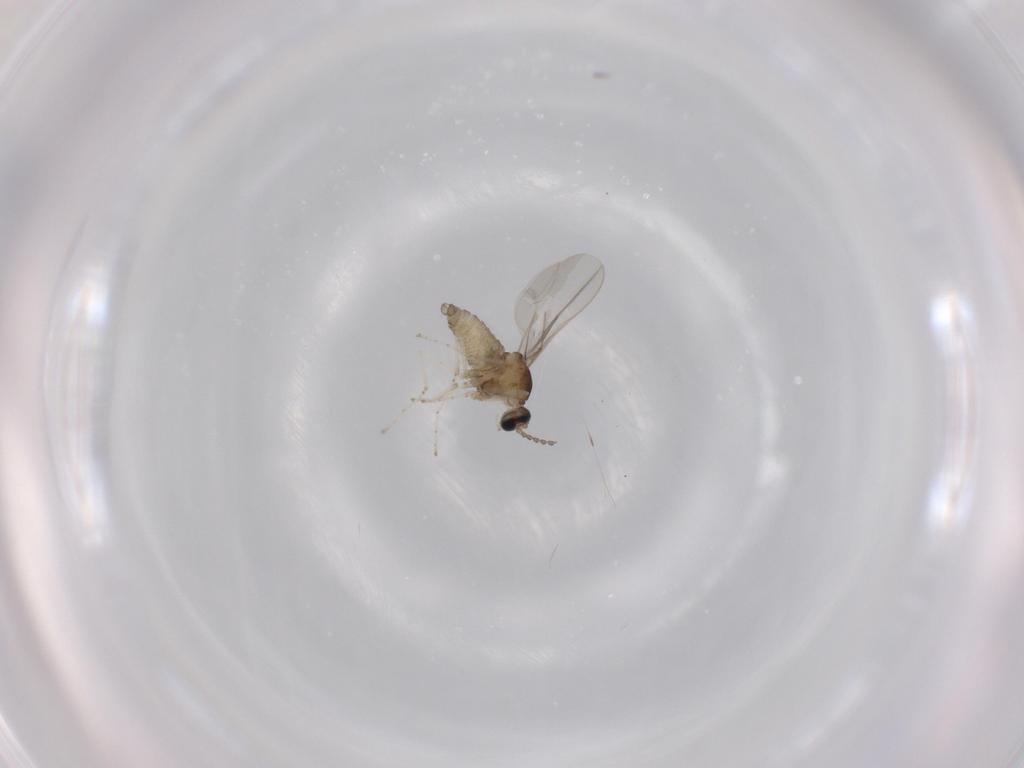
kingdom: Animalia
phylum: Arthropoda
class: Insecta
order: Diptera
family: Cecidomyiidae
